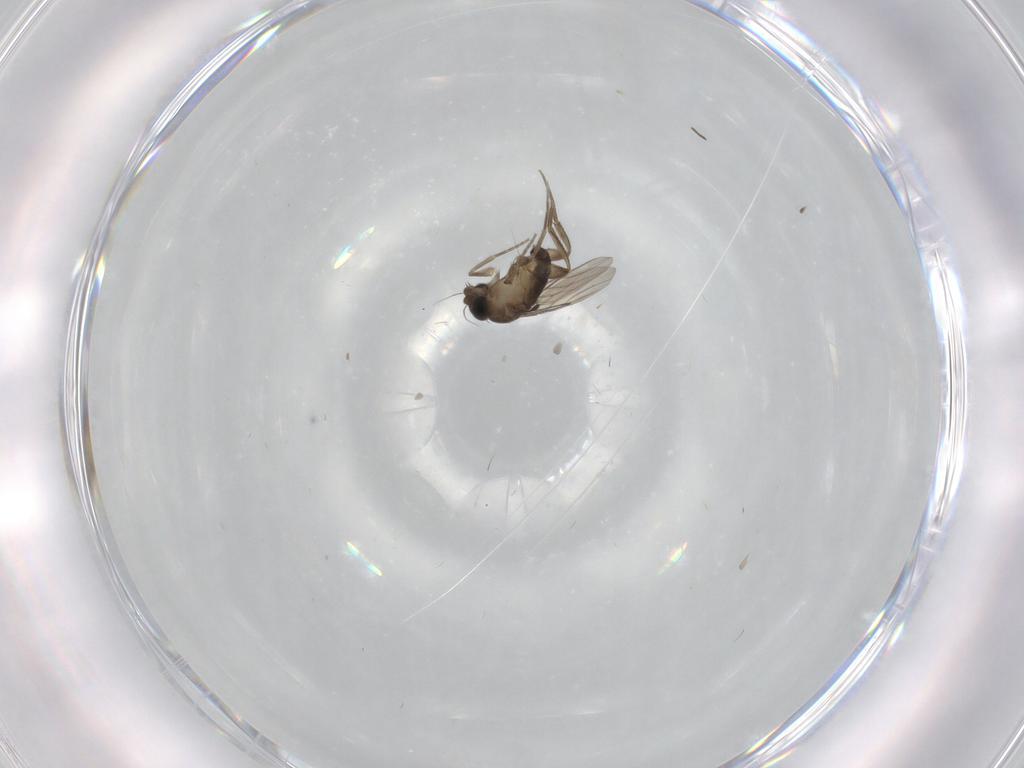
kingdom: Animalia
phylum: Arthropoda
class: Insecta
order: Diptera
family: Phoridae
